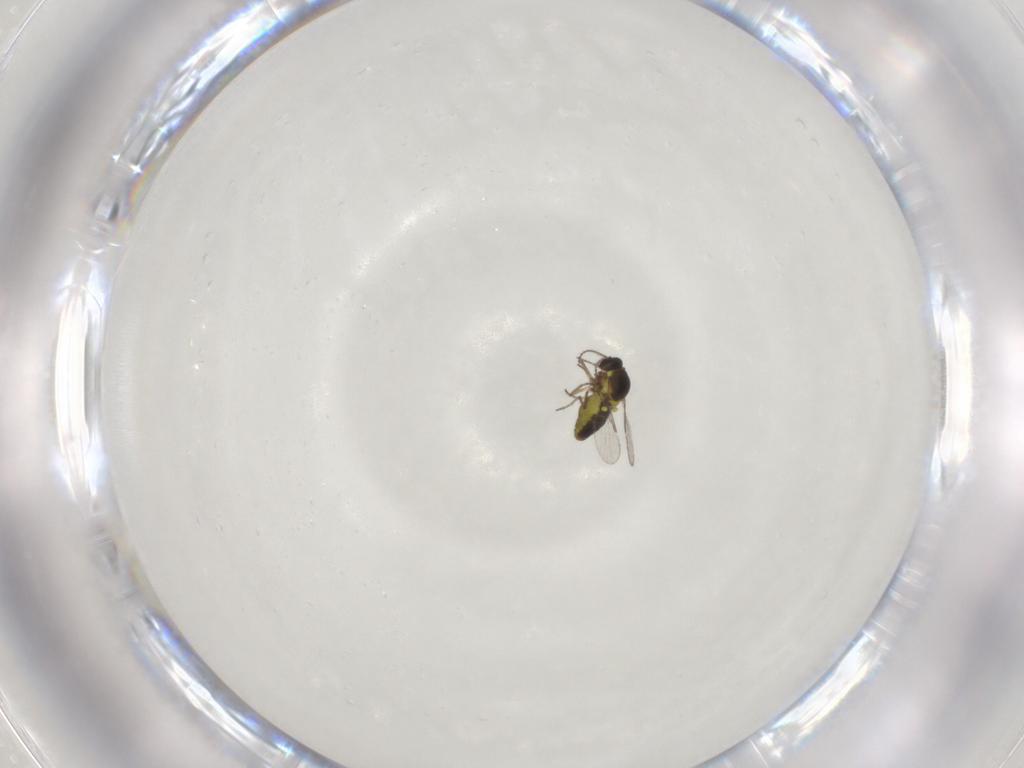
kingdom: Animalia
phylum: Arthropoda
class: Insecta
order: Diptera
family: Ceratopogonidae
